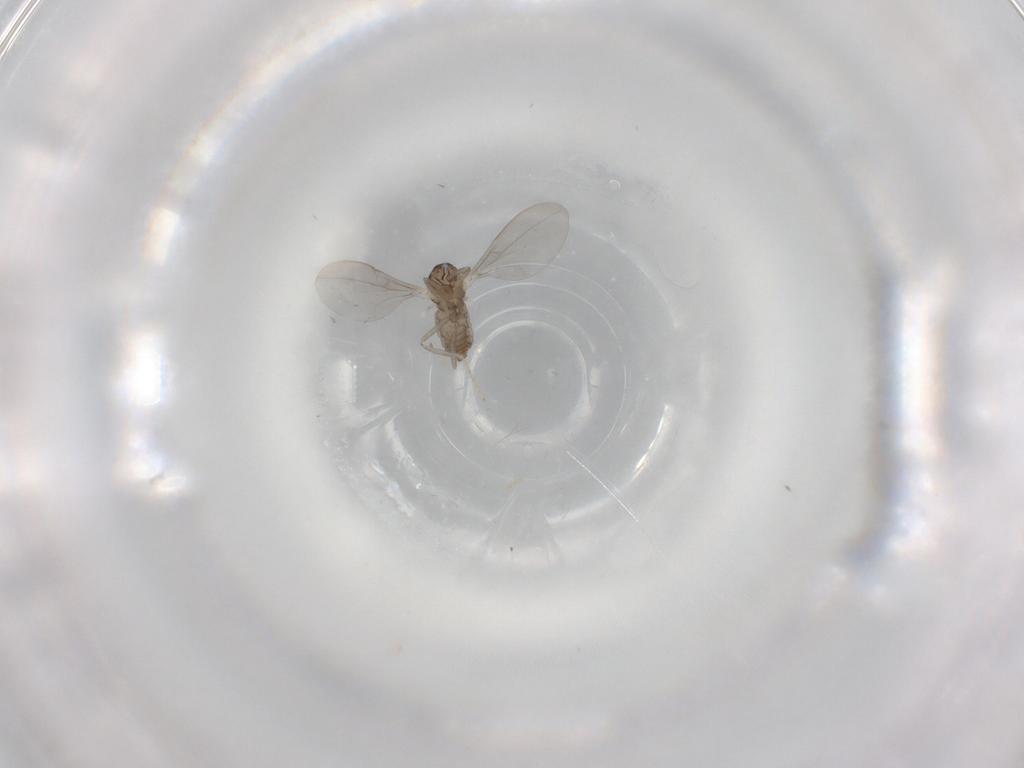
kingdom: Animalia
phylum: Arthropoda
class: Insecta
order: Diptera
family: Cecidomyiidae
